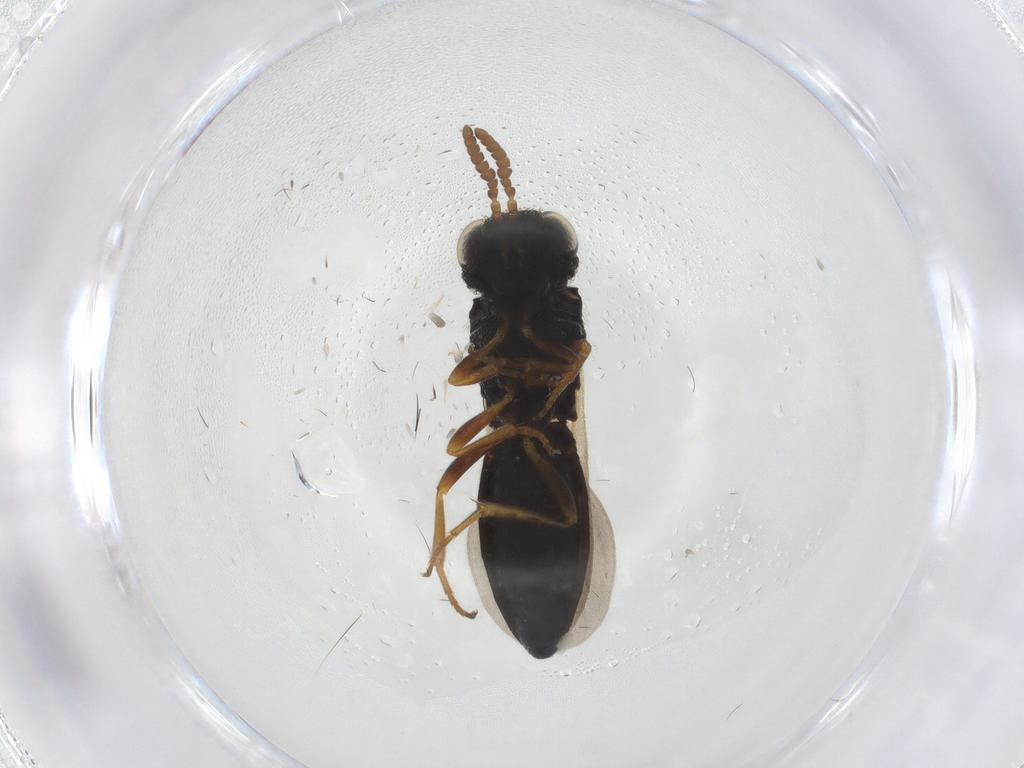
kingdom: Animalia
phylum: Arthropoda
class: Insecta
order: Hymenoptera
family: Scelionidae
